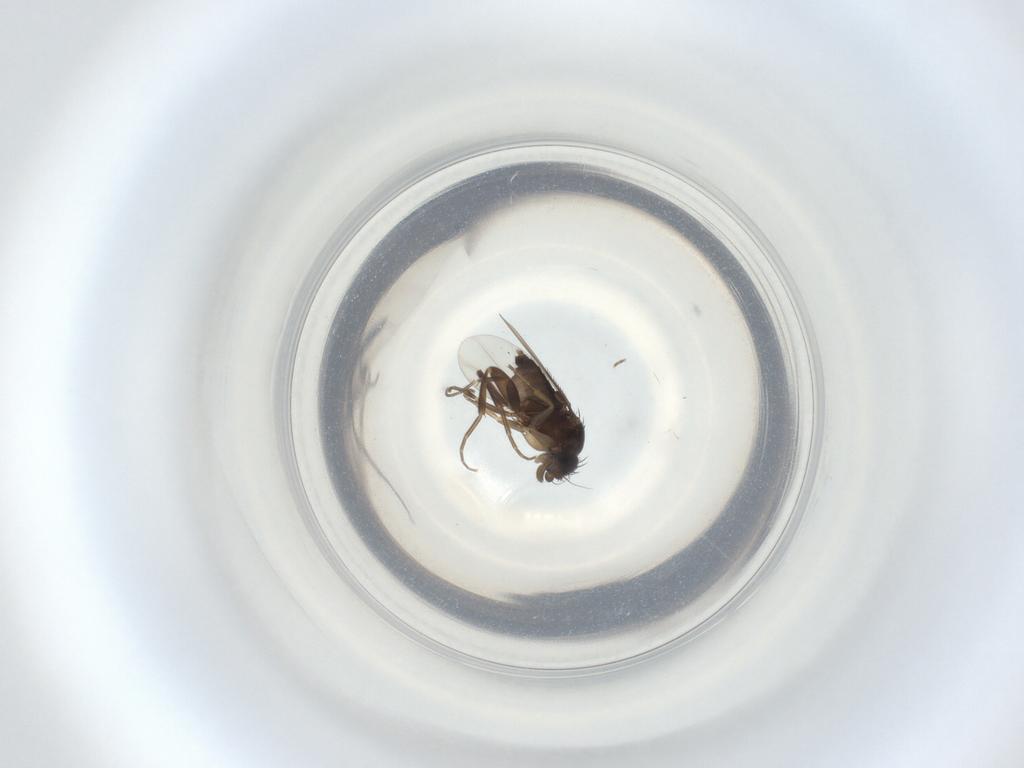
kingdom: Animalia
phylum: Arthropoda
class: Insecta
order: Diptera
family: Phoridae
